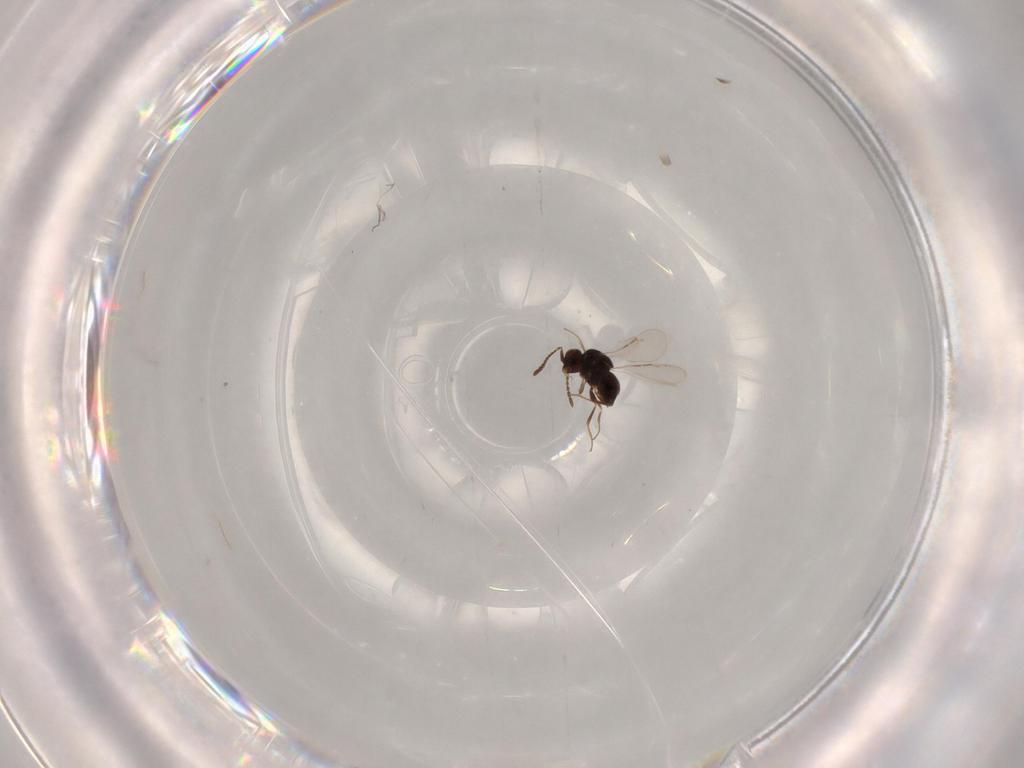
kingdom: Animalia
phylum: Arthropoda
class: Insecta
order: Hymenoptera
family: Ceraphronidae
